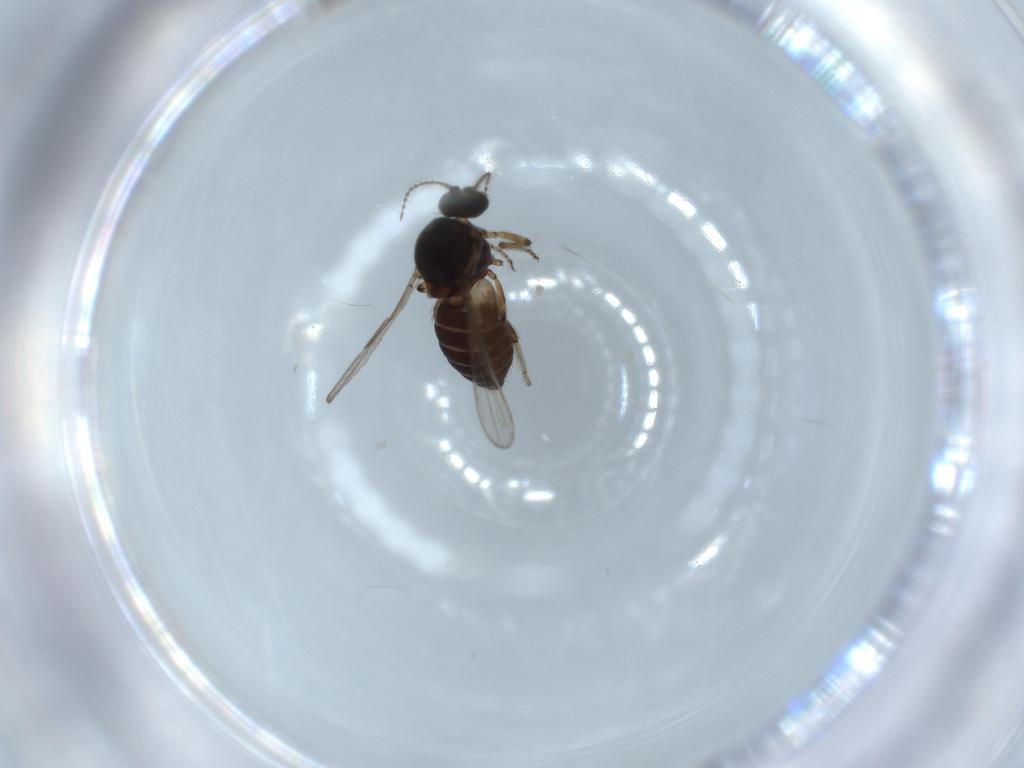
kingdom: Animalia
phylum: Arthropoda
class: Insecta
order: Diptera
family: Ceratopogonidae
